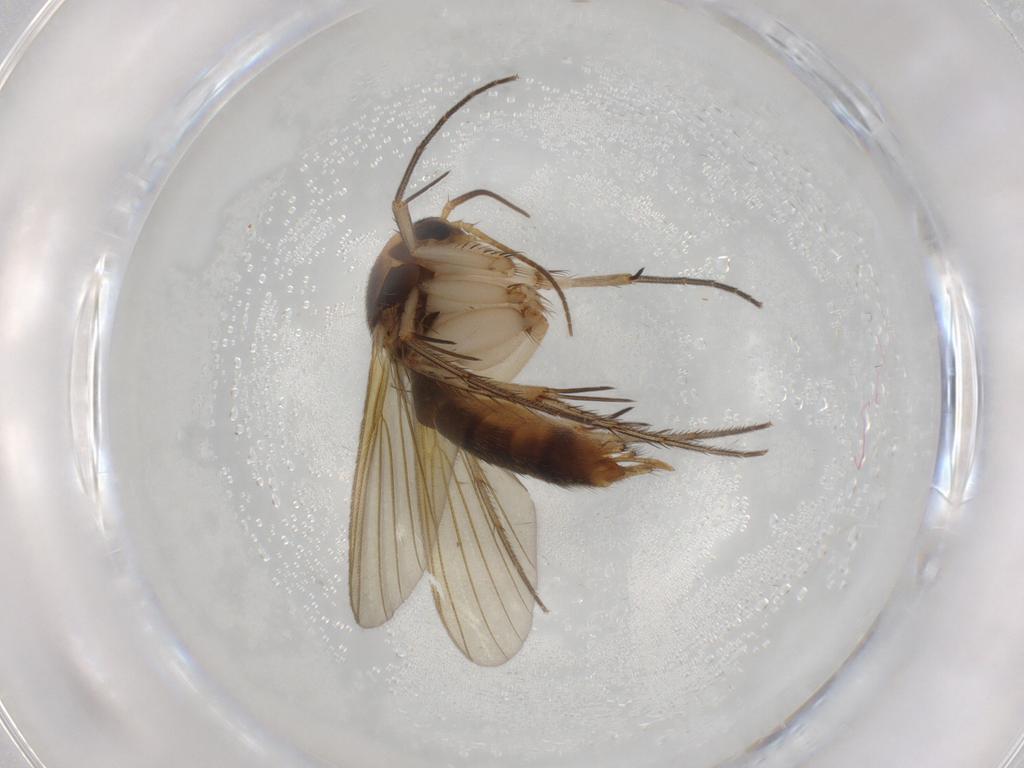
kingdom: Animalia
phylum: Arthropoda
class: Insecta
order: Diptera
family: Mycetophilidae
